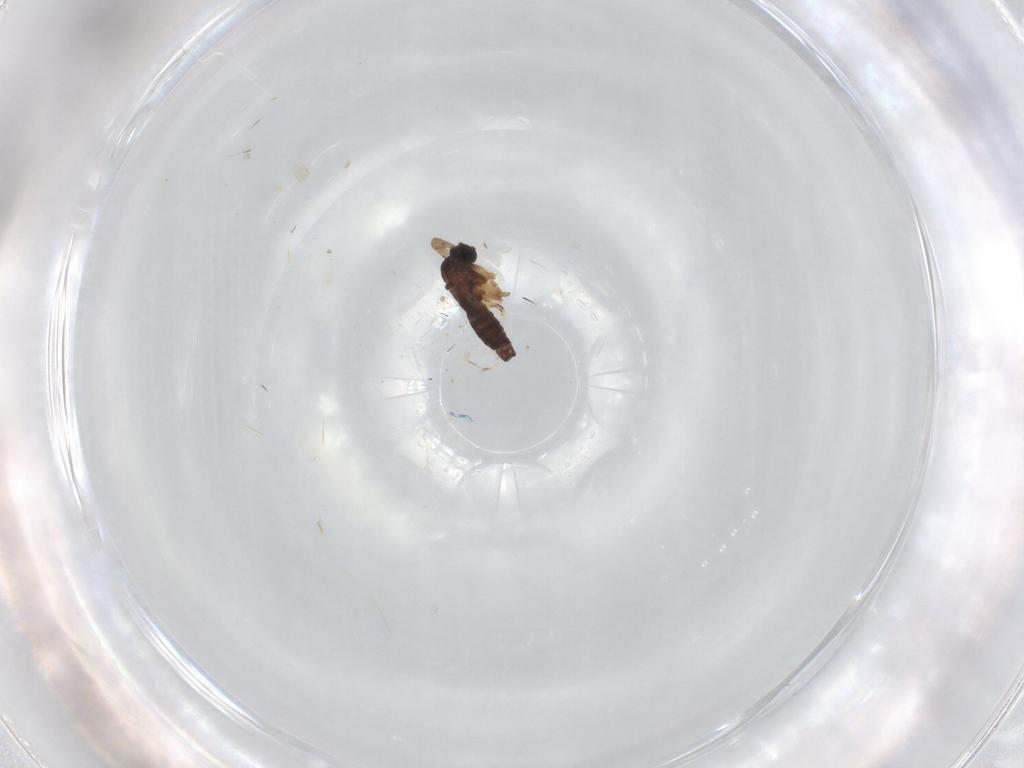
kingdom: Animalia
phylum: Arthropoda
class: Insecta
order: Diptera
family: Sciaridae
